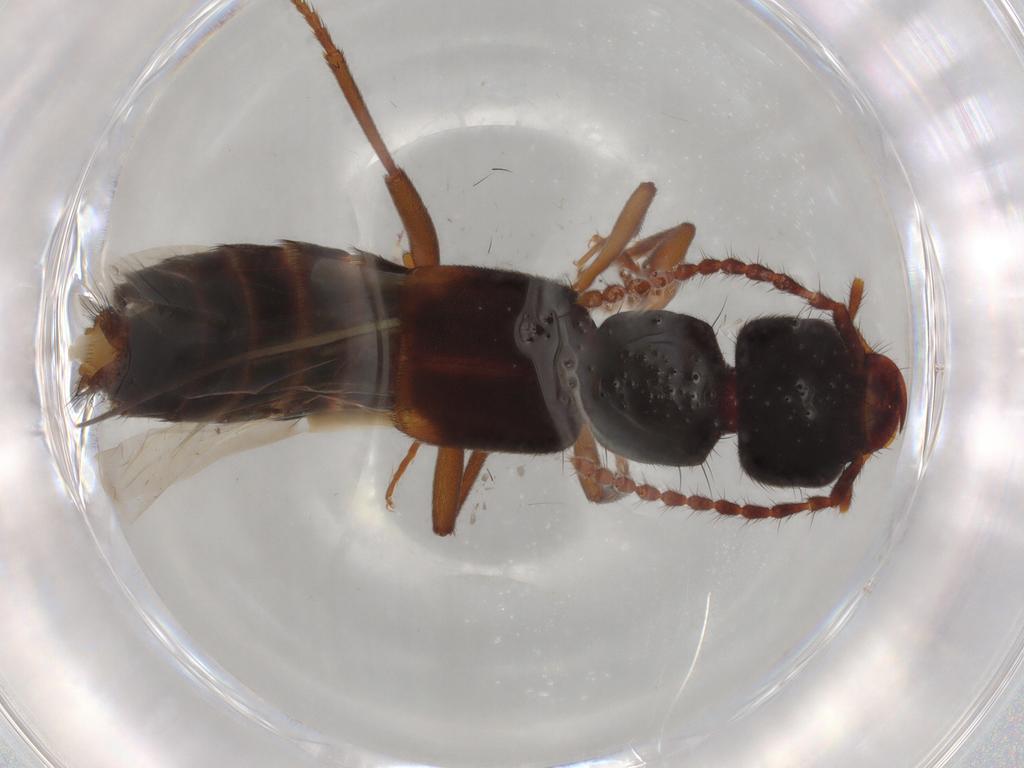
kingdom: Animalia
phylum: Arthropoda
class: Insecta
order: Coleoptera
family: Staphylinidae
